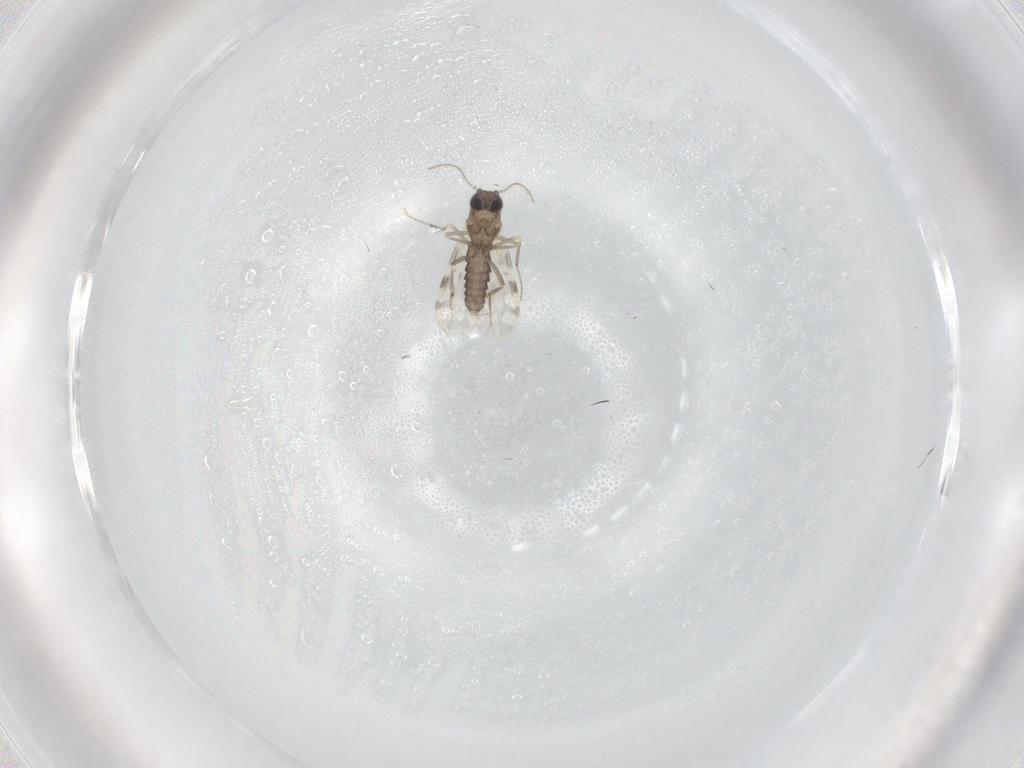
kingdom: Animalia
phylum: Arthropoda
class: Insecta
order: Diptera
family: Ceratopogonidae
